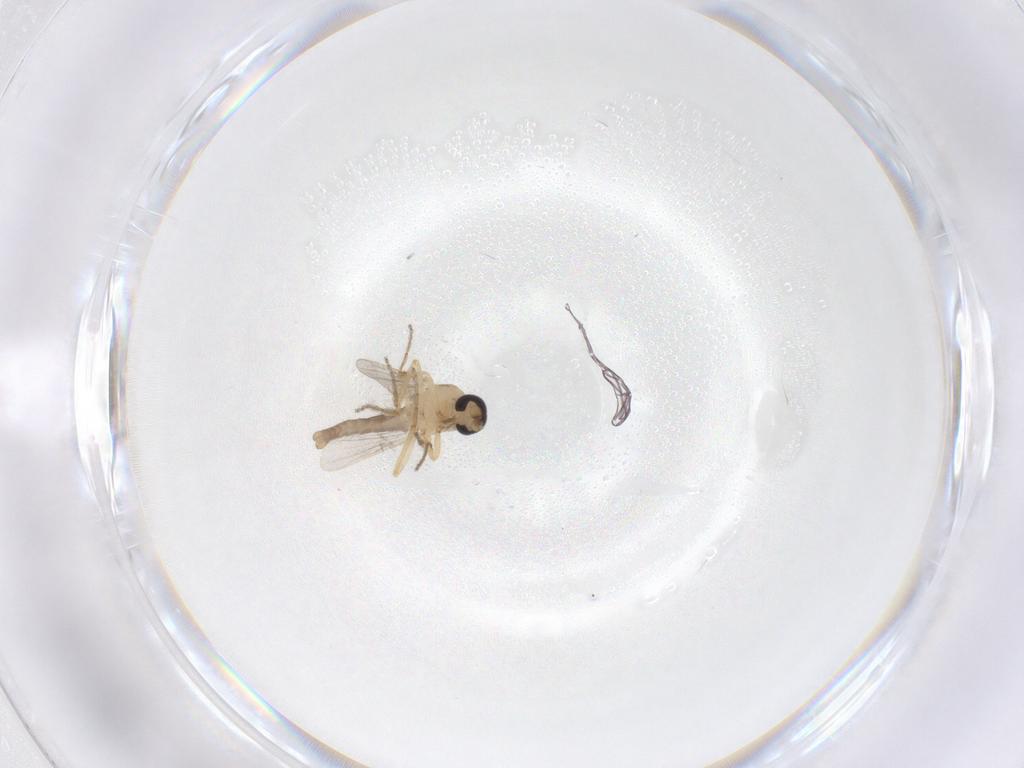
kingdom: Animalia
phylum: Arthropoda
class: Insecta
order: Diptera
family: Ceratopogonidae
